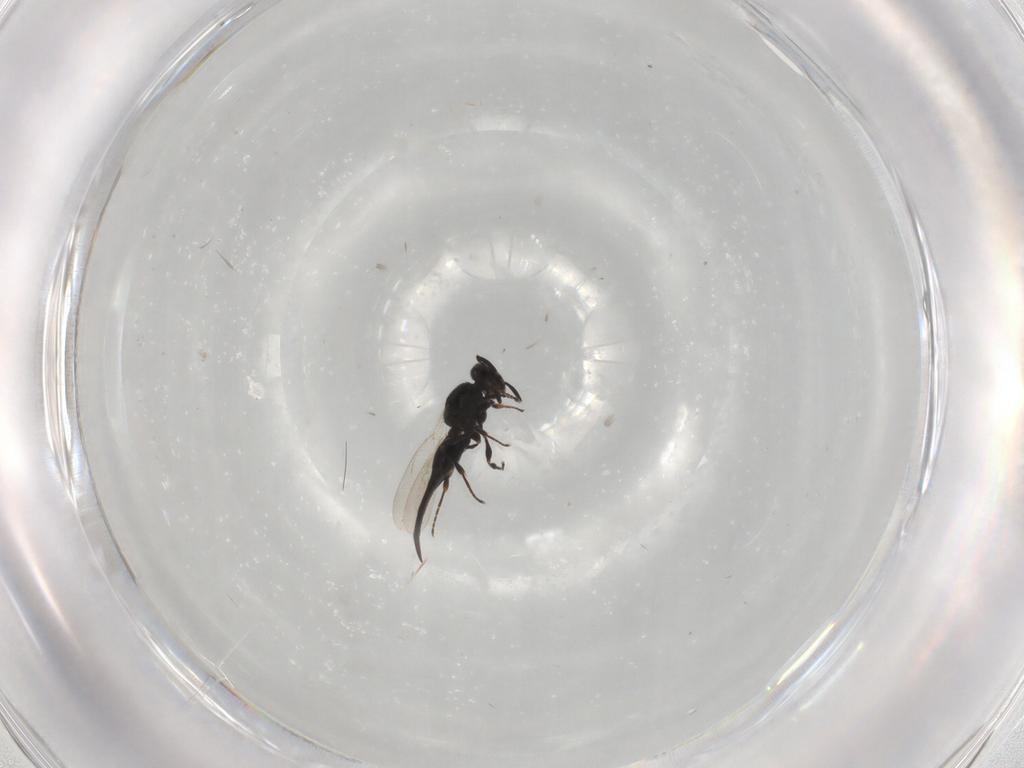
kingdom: Animalia
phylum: Arthropoda
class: Insecta
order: Hymenoptera
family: Platygastridae
